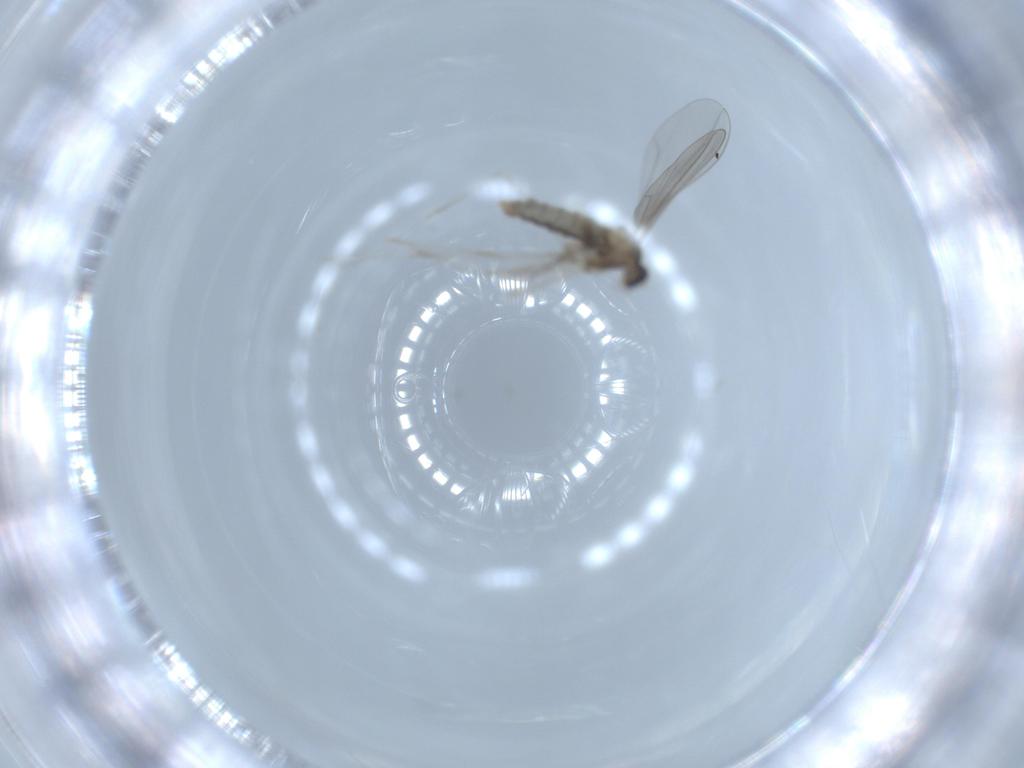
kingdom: Animalia
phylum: Arthropoda
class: Insecta
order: Diptera
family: Cecidomyiidae
